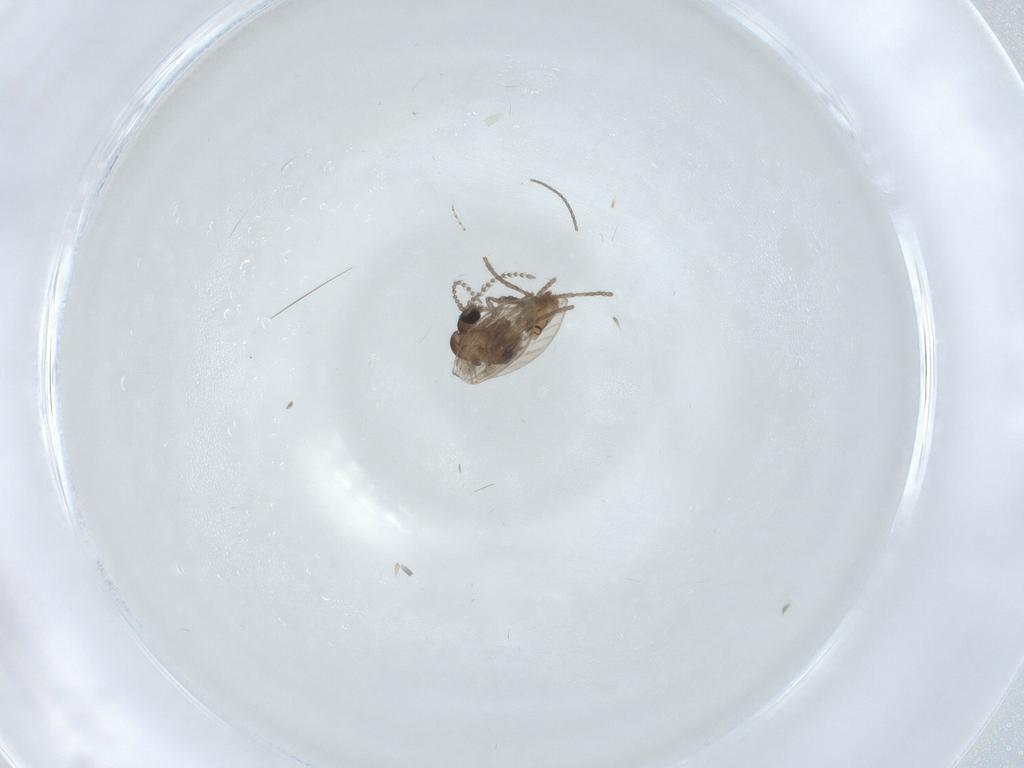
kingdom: Animalia
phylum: Arthropoda
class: Insecta
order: Diptera
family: Psychodidae
